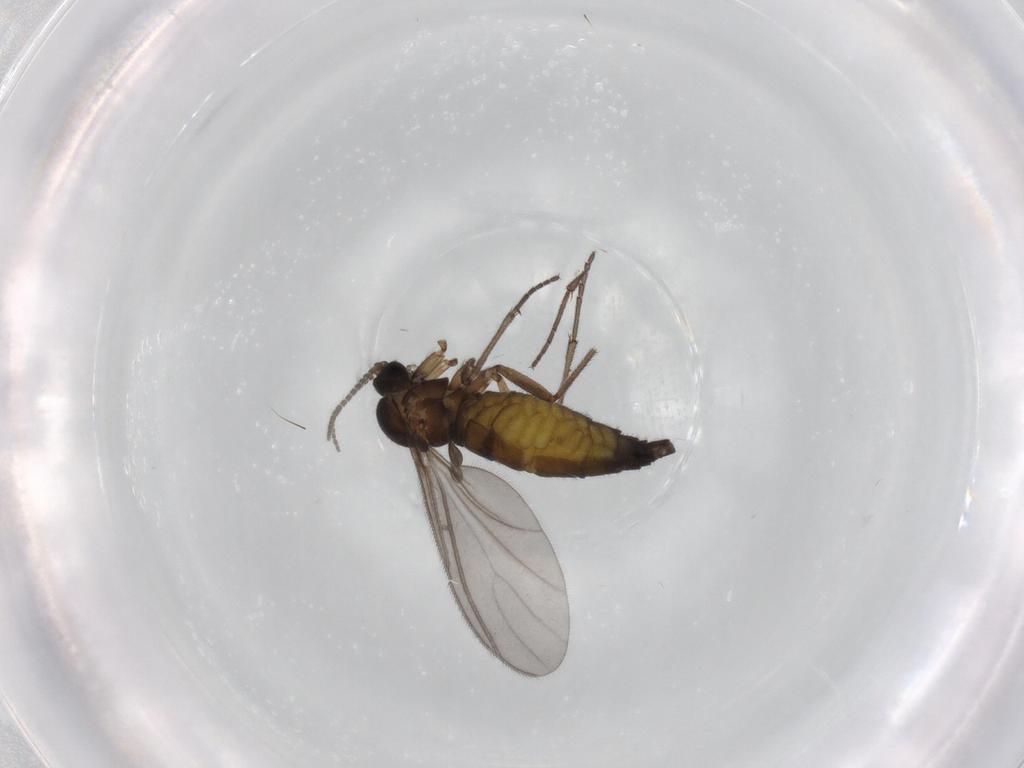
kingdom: Animalia
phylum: Arthropoda
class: Insecta
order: Diptera
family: Sciaridae
